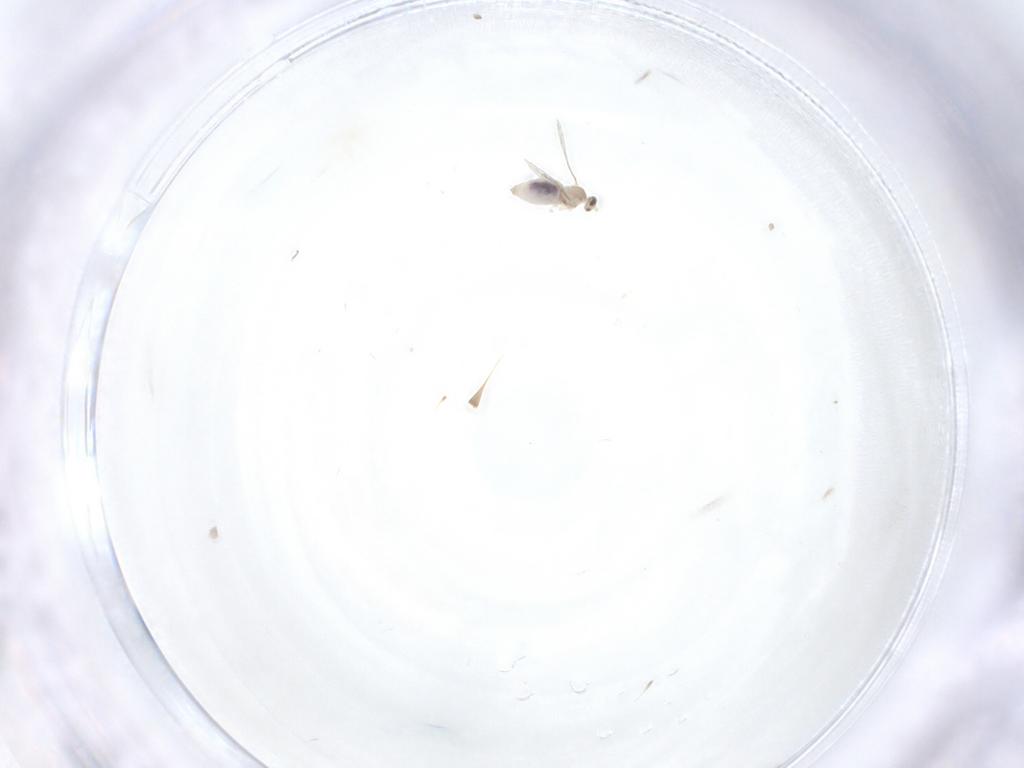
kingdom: Animalia
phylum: Arthropoda
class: Insecta
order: Diptera
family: Cecidomyiidae
